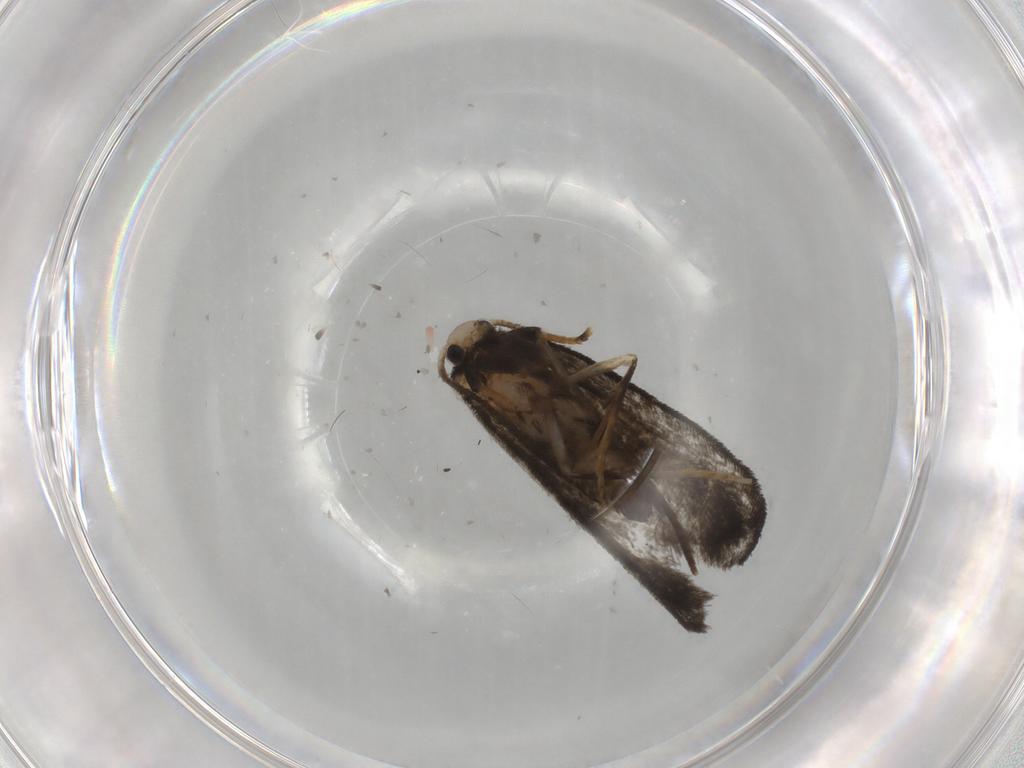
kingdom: Animalia
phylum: Arthropoda
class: Insecta
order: Lepidoptera
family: Psychidae
